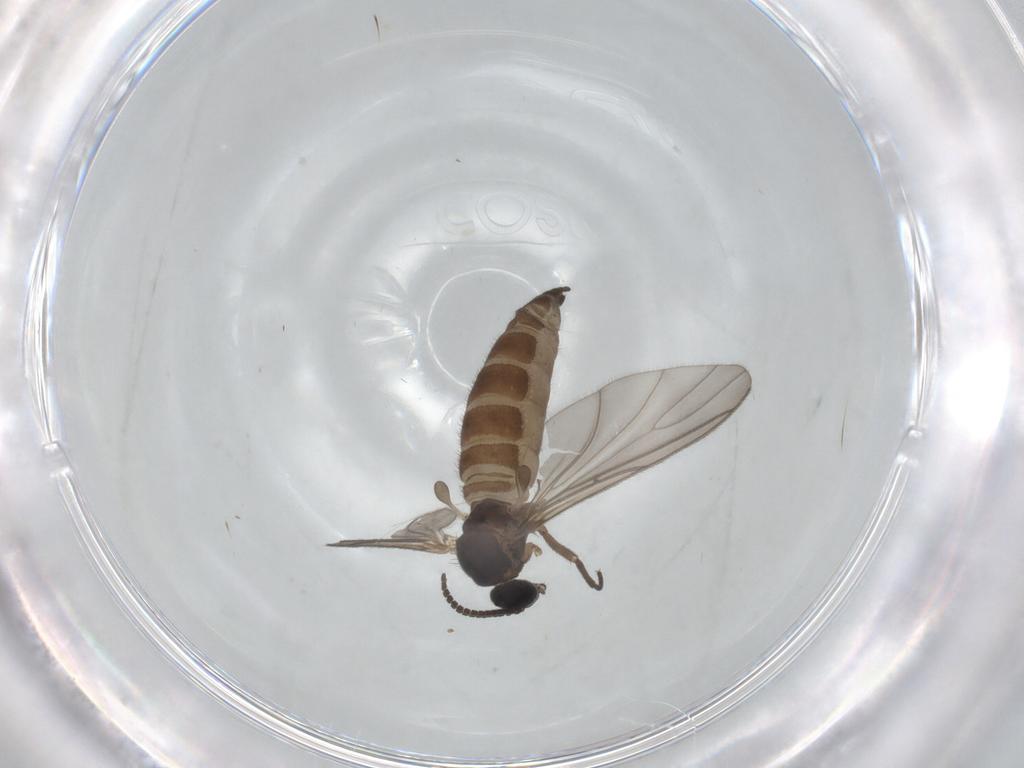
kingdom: Animalia
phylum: Arthropoda
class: Insecta
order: Diptera
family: Sciaridae
